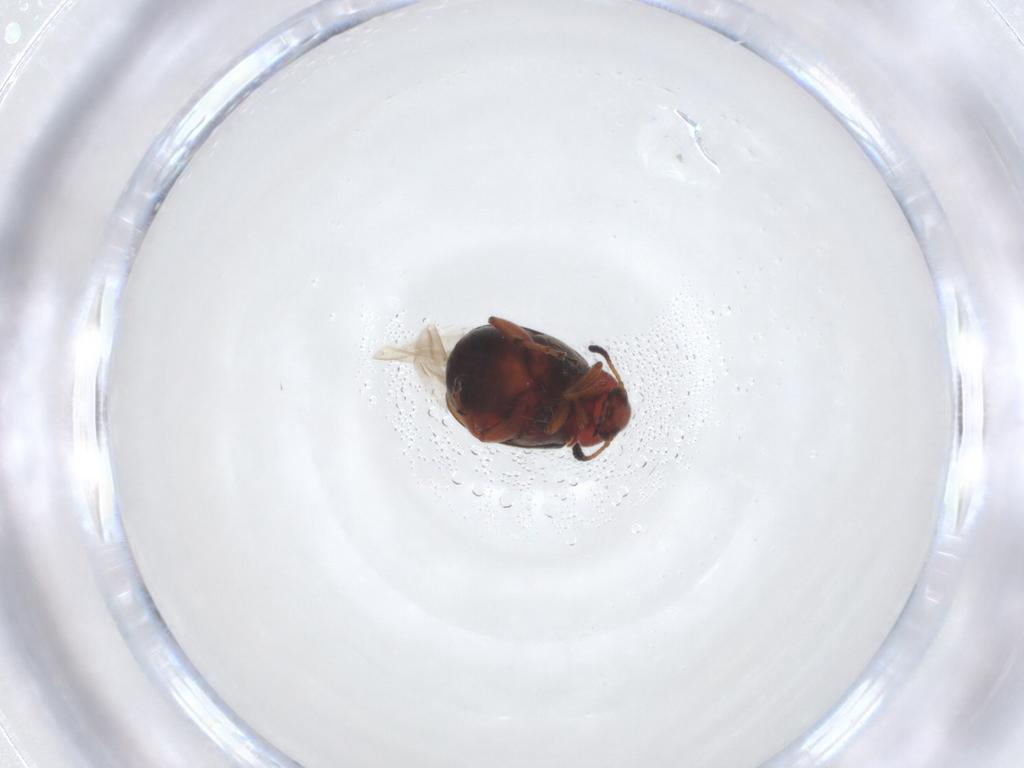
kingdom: Animalia
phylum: Arthropoda
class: Insecta
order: Coleoptera
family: Chrysomelidae
